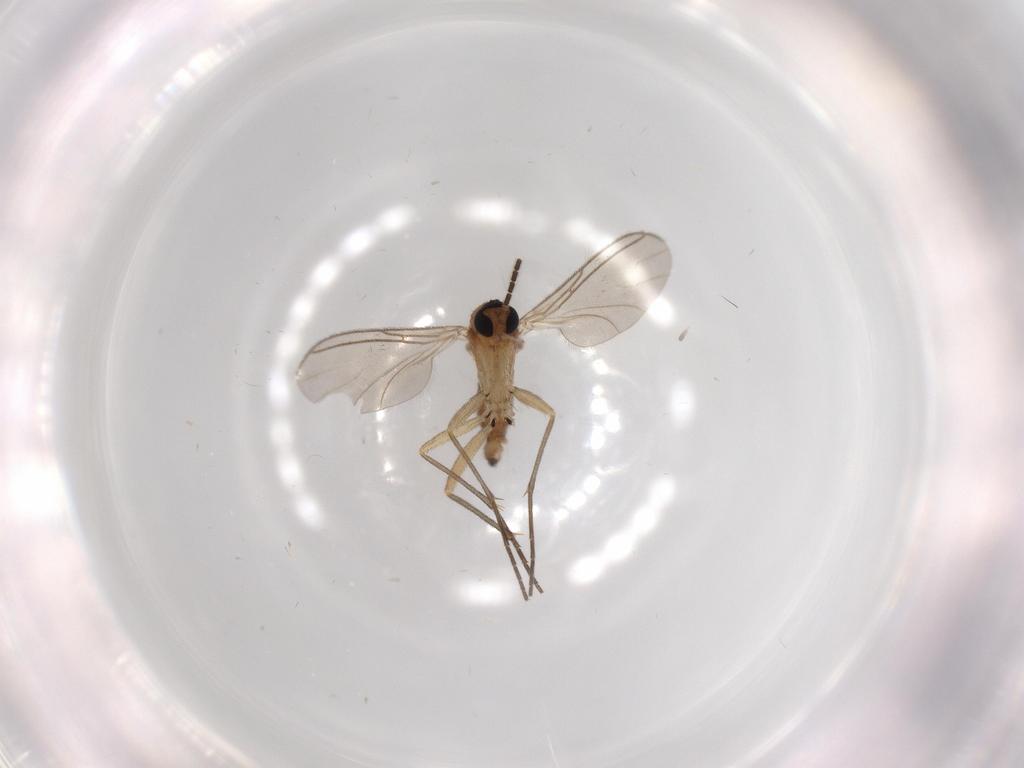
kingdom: Animalia
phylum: Arthropoda
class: Insecta
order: Diptera
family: Sciaridae
